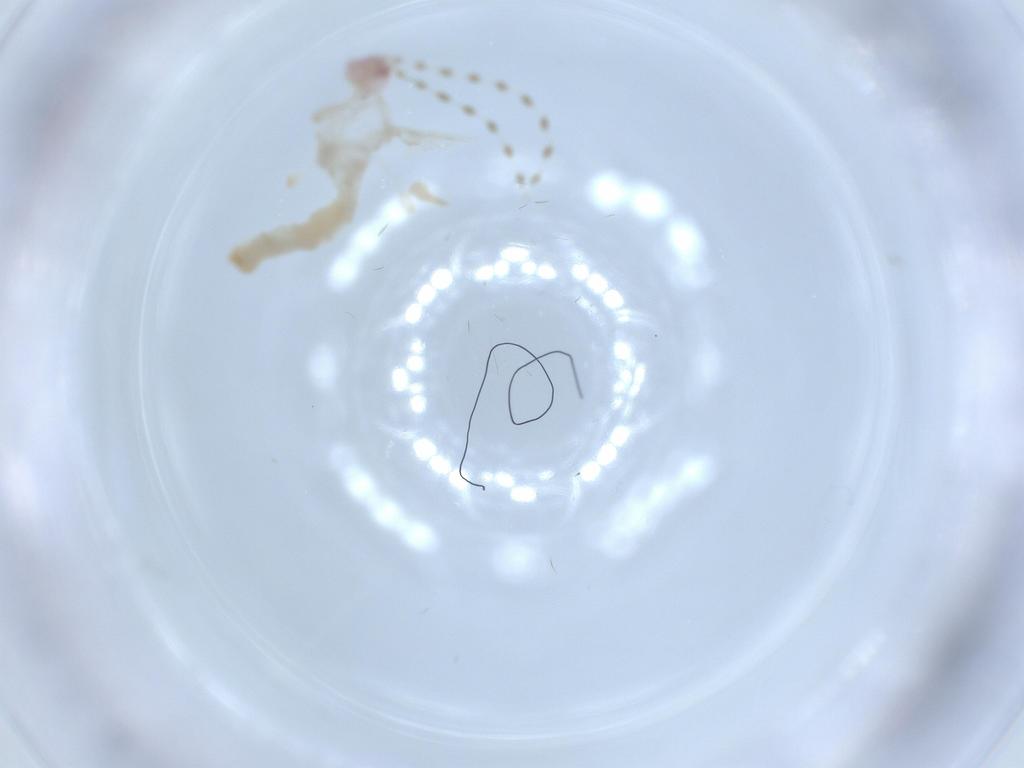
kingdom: Animalia
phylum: Arthropoda
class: Insecta
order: Diptera
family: Cecidomyiidae
